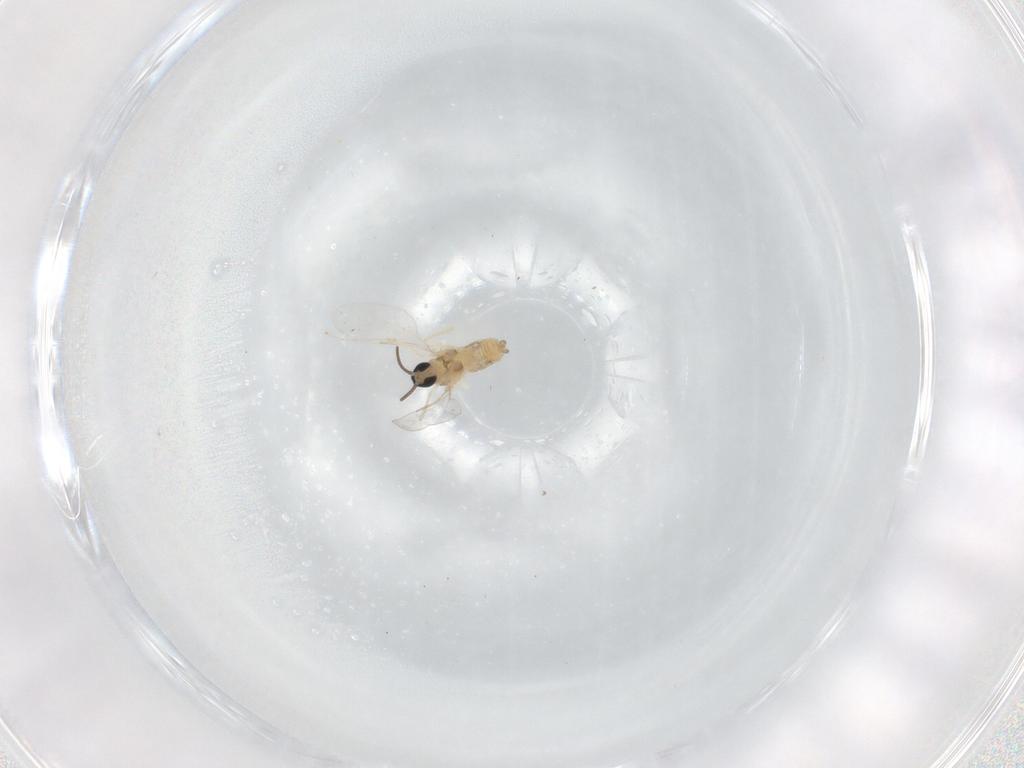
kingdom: Animalia
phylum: Arthropoda
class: Insecta
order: Diptera
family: Cecidomyiidae
